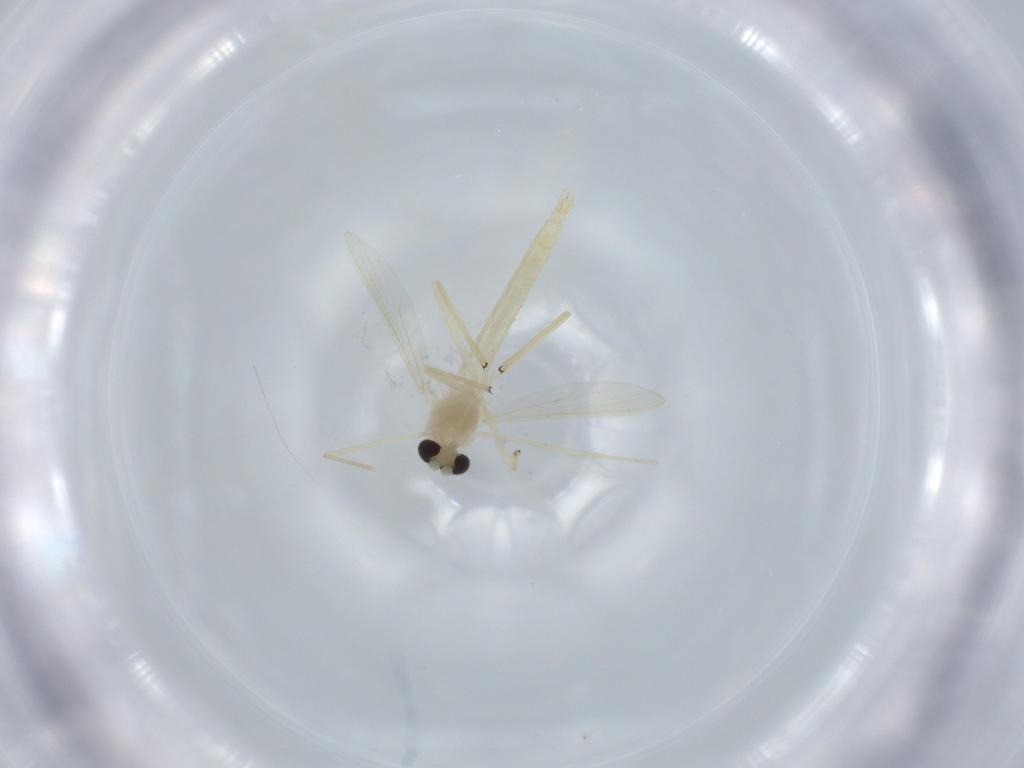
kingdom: Animalia
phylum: Arthropoda
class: Insecta
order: Diptera
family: Chironomidae
